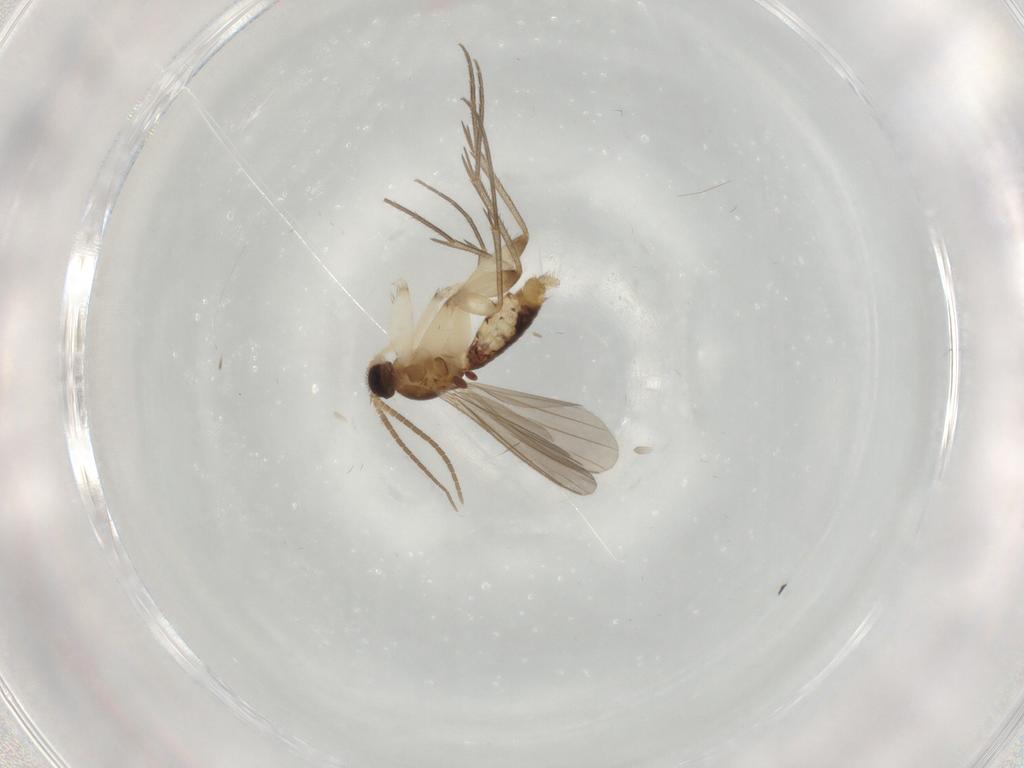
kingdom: Animalia
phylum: Arthropoda
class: Insecta
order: Diptera
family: Mycetophilidae
